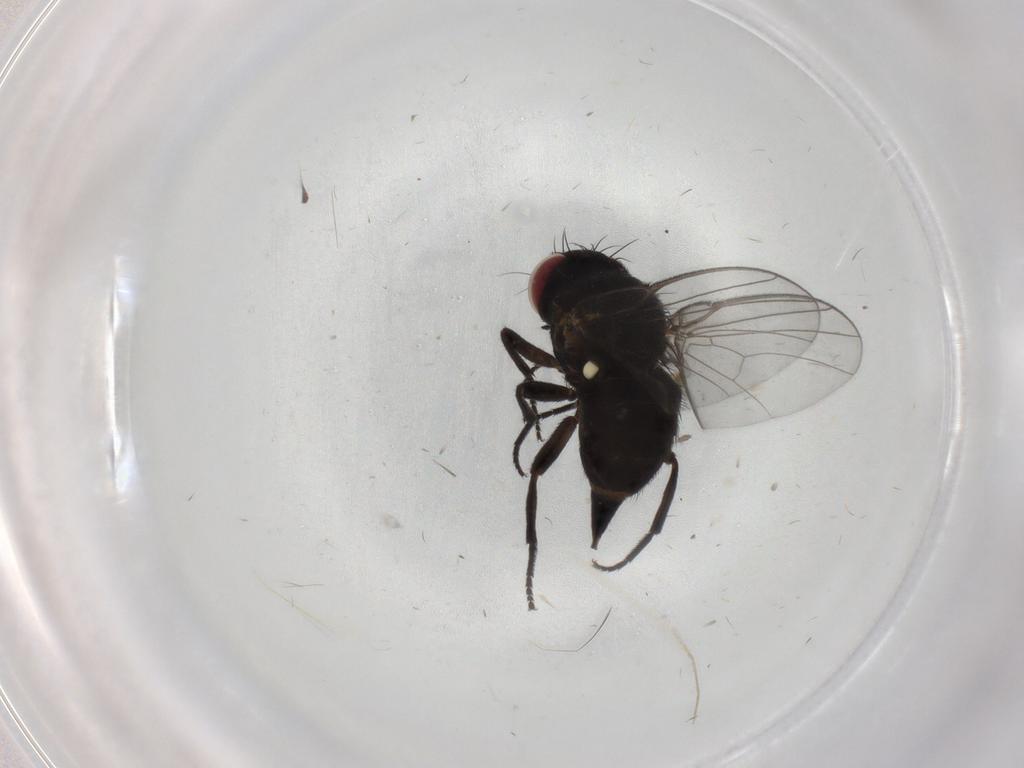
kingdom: Animalia
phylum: Arthropoda
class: Insecta
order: Diptera
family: Agromyzidae
